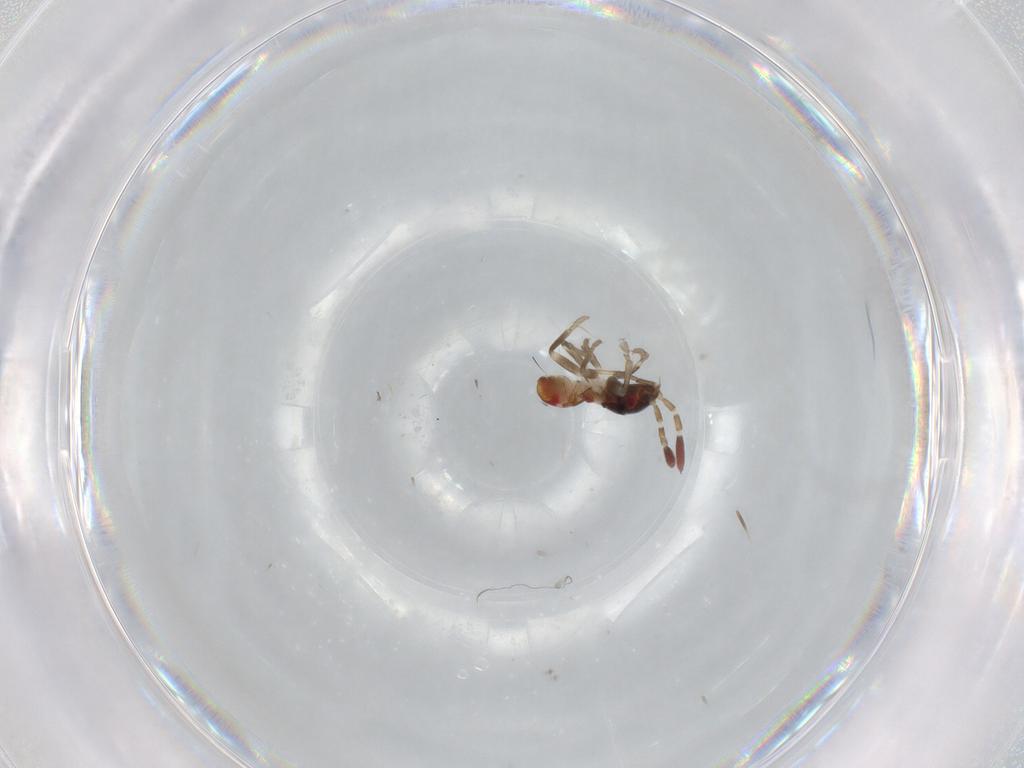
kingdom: Animalia
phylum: Arthropoda
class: Insecta
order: Hemiptera
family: Rhyparochromidae
